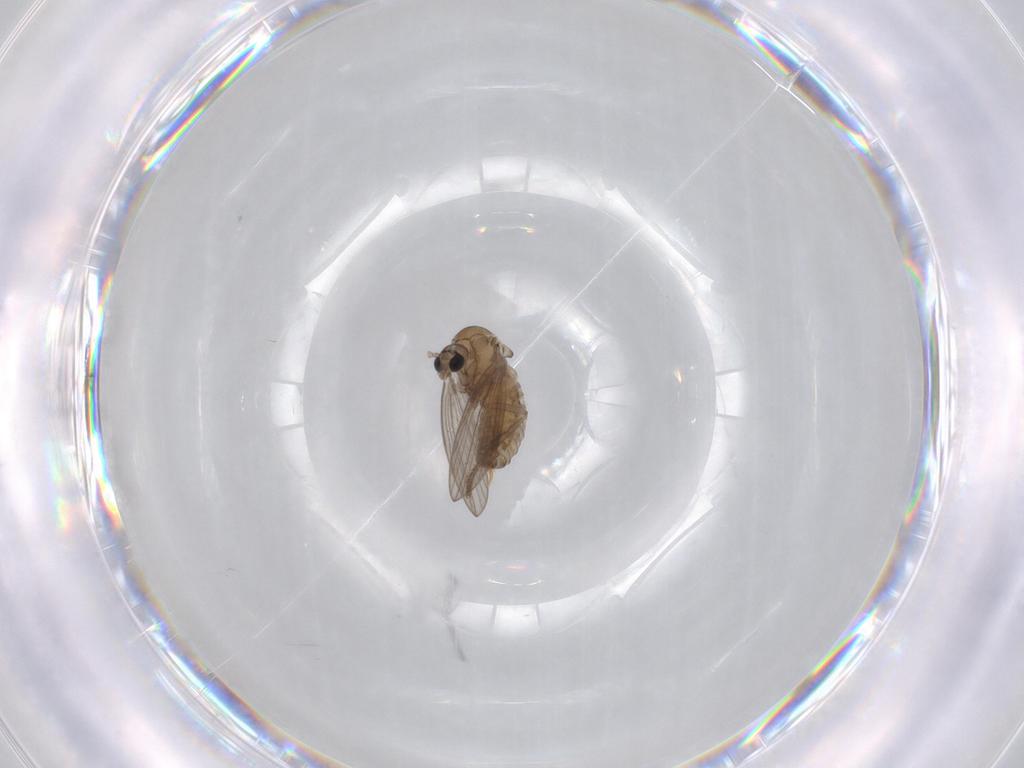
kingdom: Animalia
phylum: Arthropoda
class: Insecta
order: Diptera
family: Psychodidae
